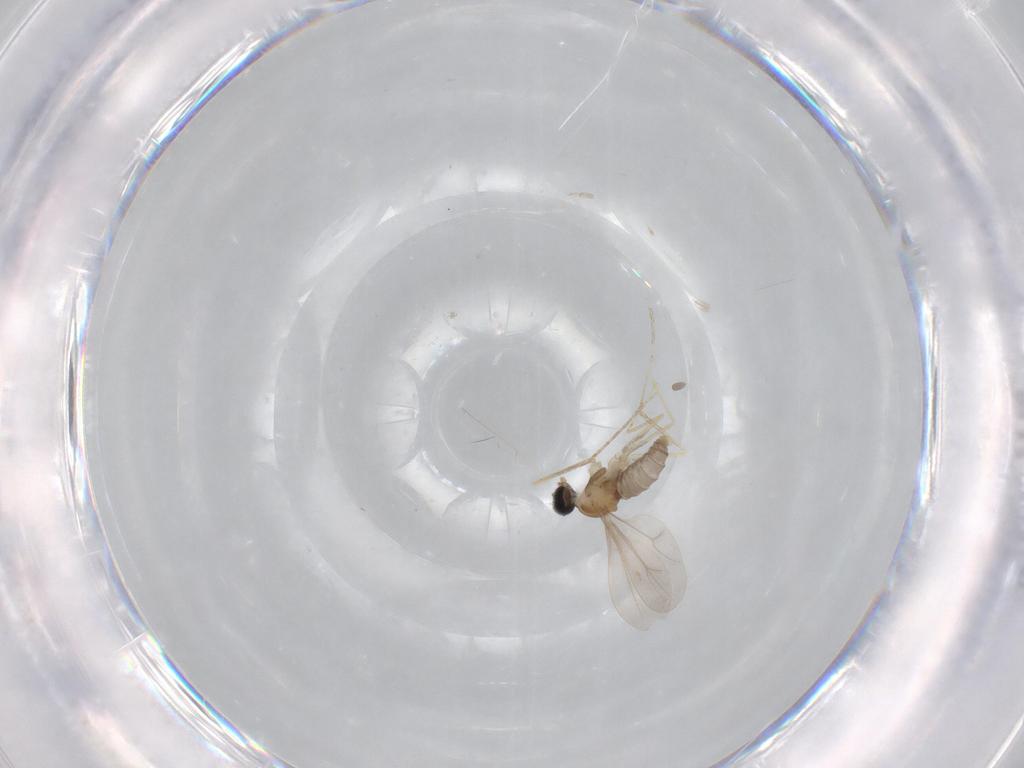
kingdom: Animalia
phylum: Arthropoda
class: Insecta
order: Diptera
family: Cecidomyiidae
